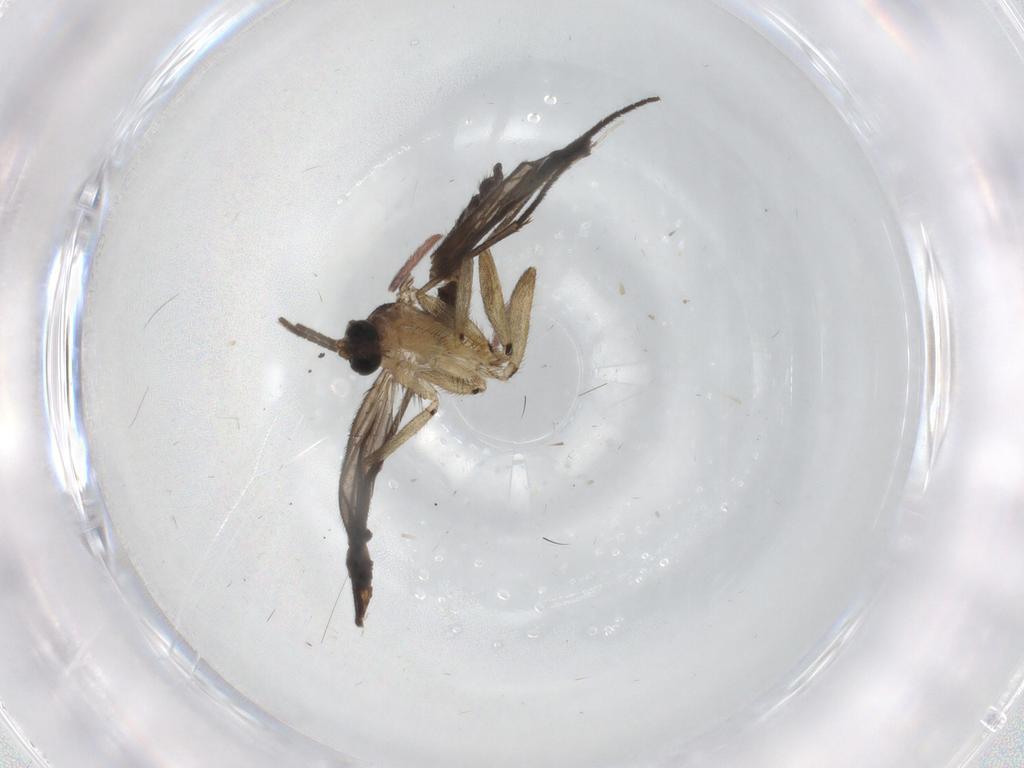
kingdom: Animalia
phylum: Arthropoda
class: Insecta
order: Diptera
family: Sciaridae
